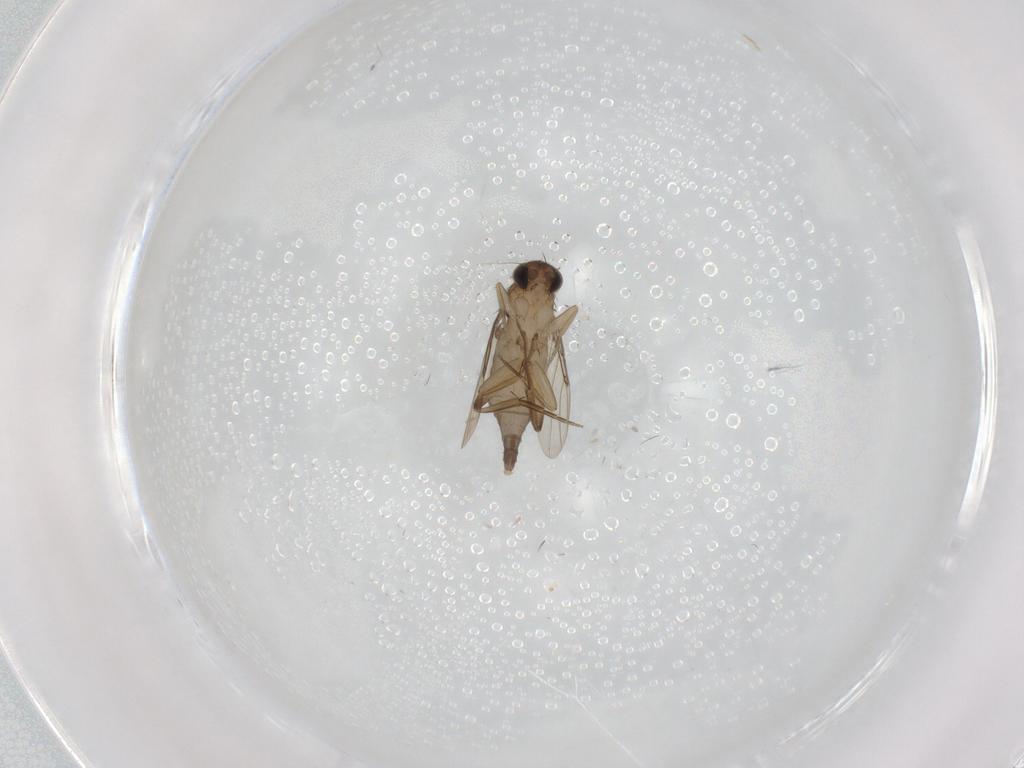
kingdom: Animalia
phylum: Arthropoda
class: Insecta
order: Diptera
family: Phoridae
